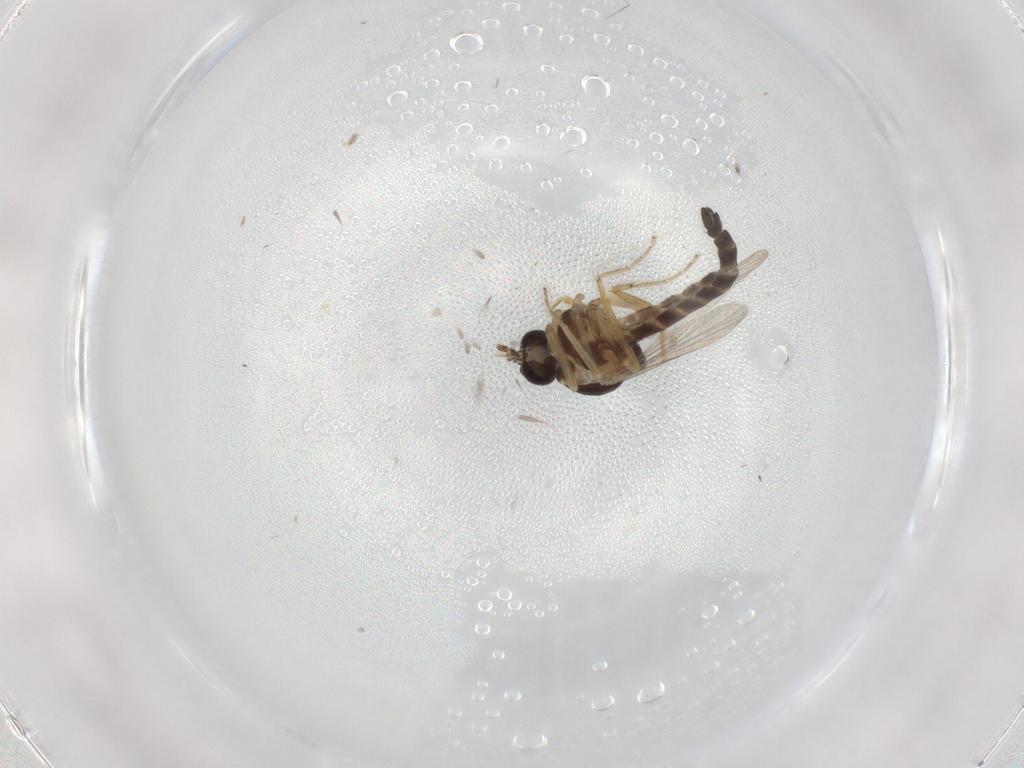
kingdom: Animalia
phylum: Arthropoda
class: Insecta
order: Diptera
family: Ceratopogonidae
